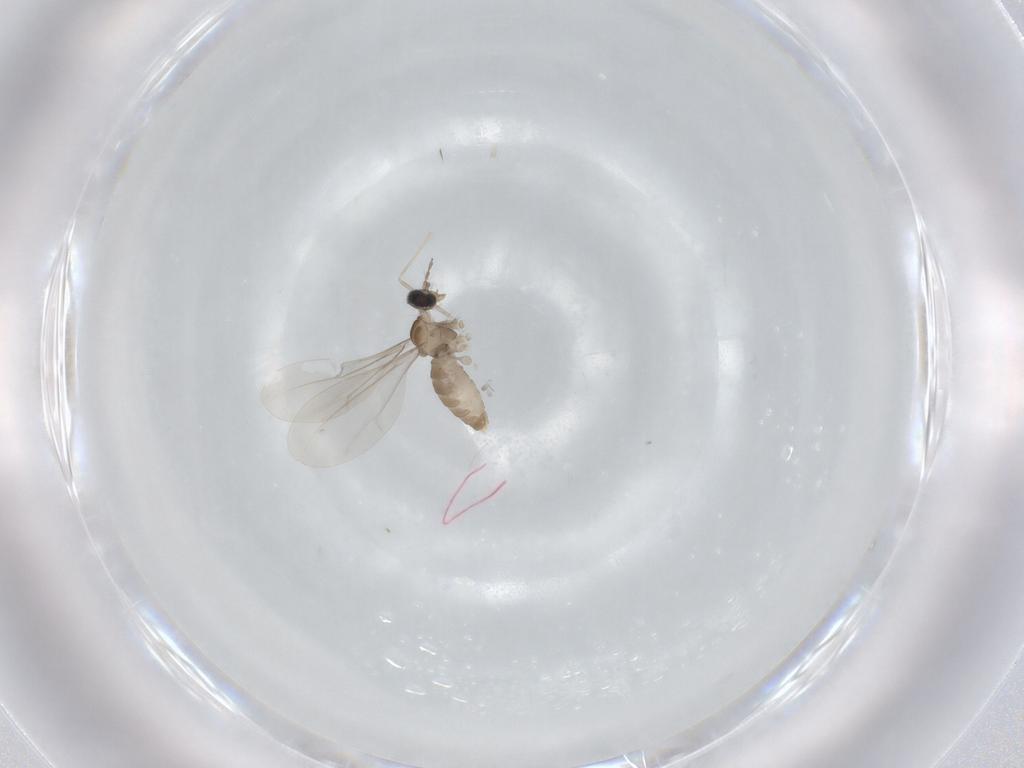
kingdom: Animalia
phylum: Arthropoda
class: Insecta
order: Diptera
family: Cecidomyiidae
